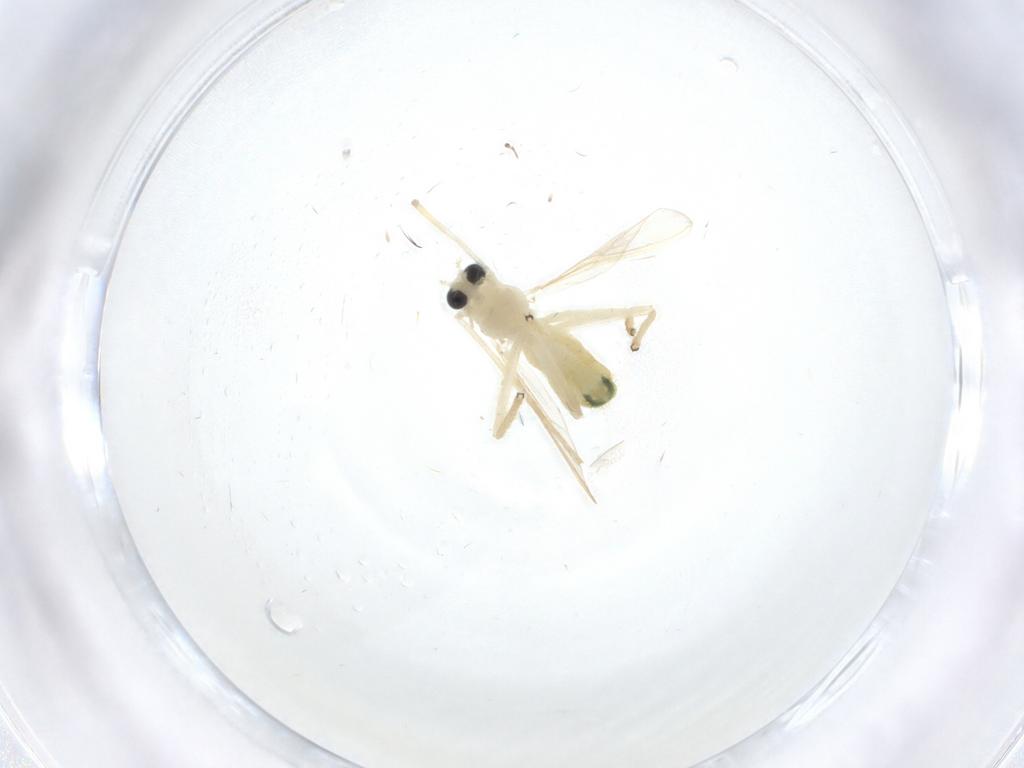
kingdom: Animalia
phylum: Arthropoda
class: Insecta
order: Diptera
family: Chironomidae
